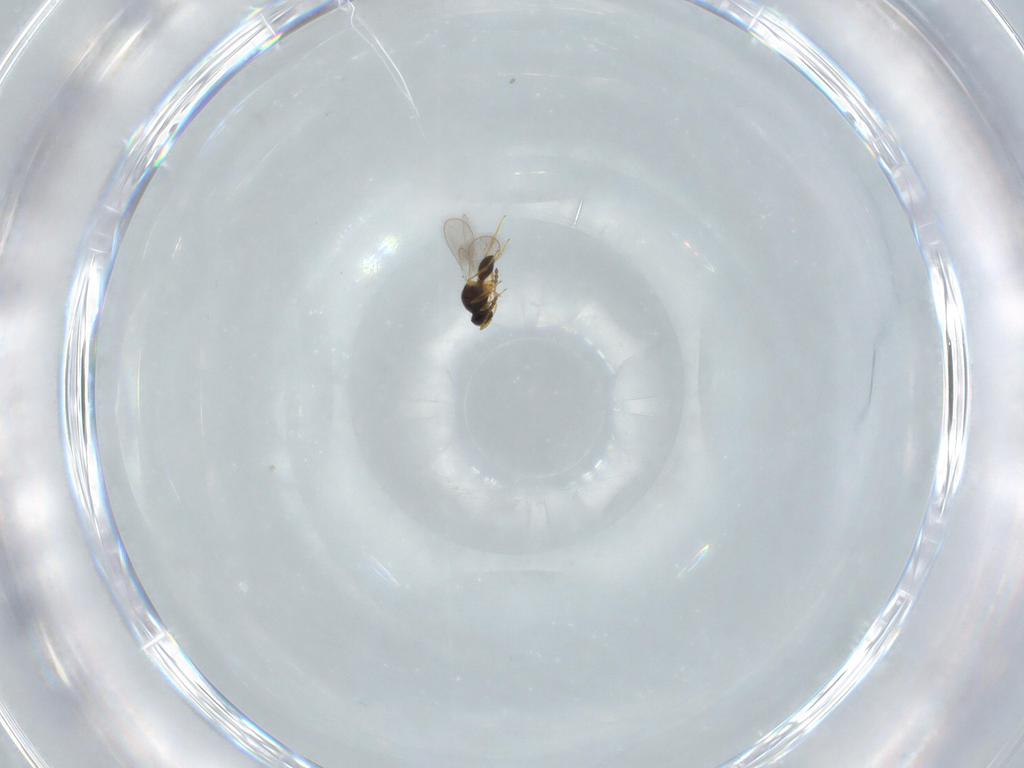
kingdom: Animalia
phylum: Arthropoda
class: Insecta
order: Hymenoptera
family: Platygastridae
